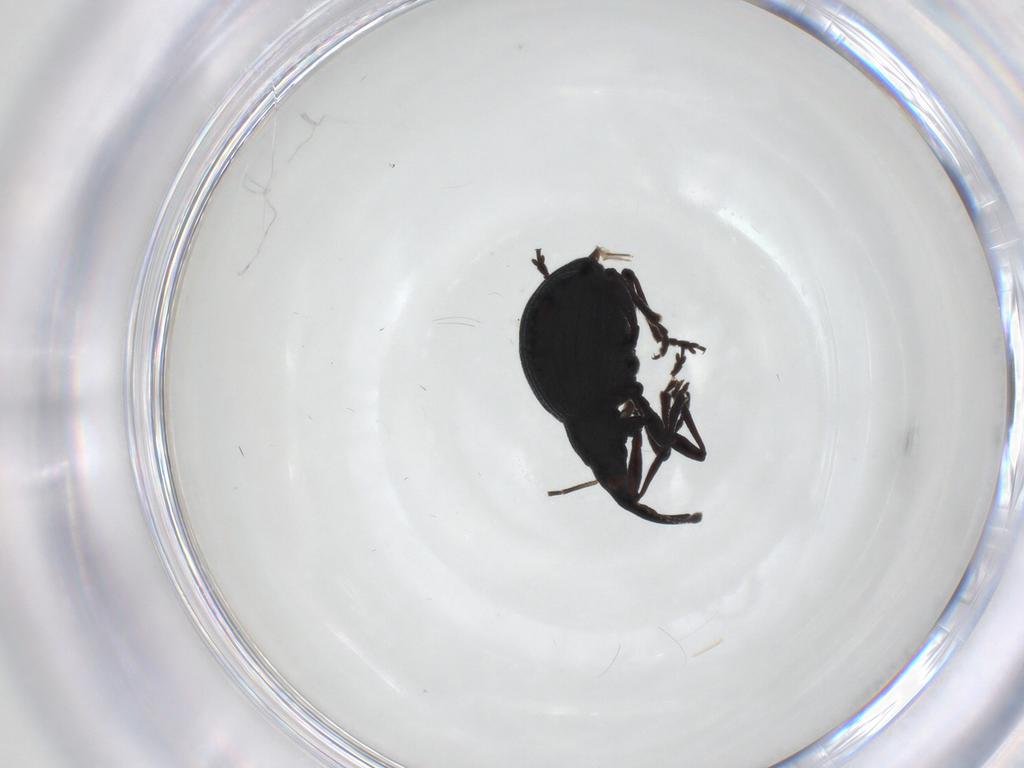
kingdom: Animalia
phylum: Arthropoda
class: Insecta
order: Coleoptera
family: Brentidae
